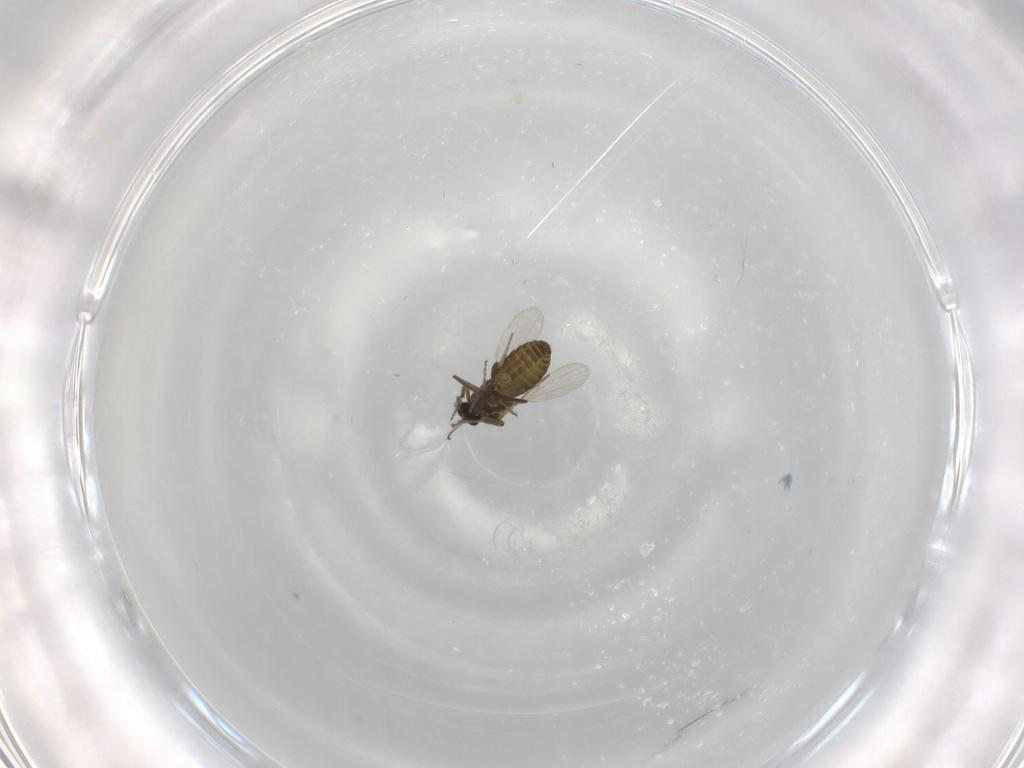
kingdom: Animalia
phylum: Arthropoda
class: Insecta
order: Diptera
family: Ceratopogonidae
